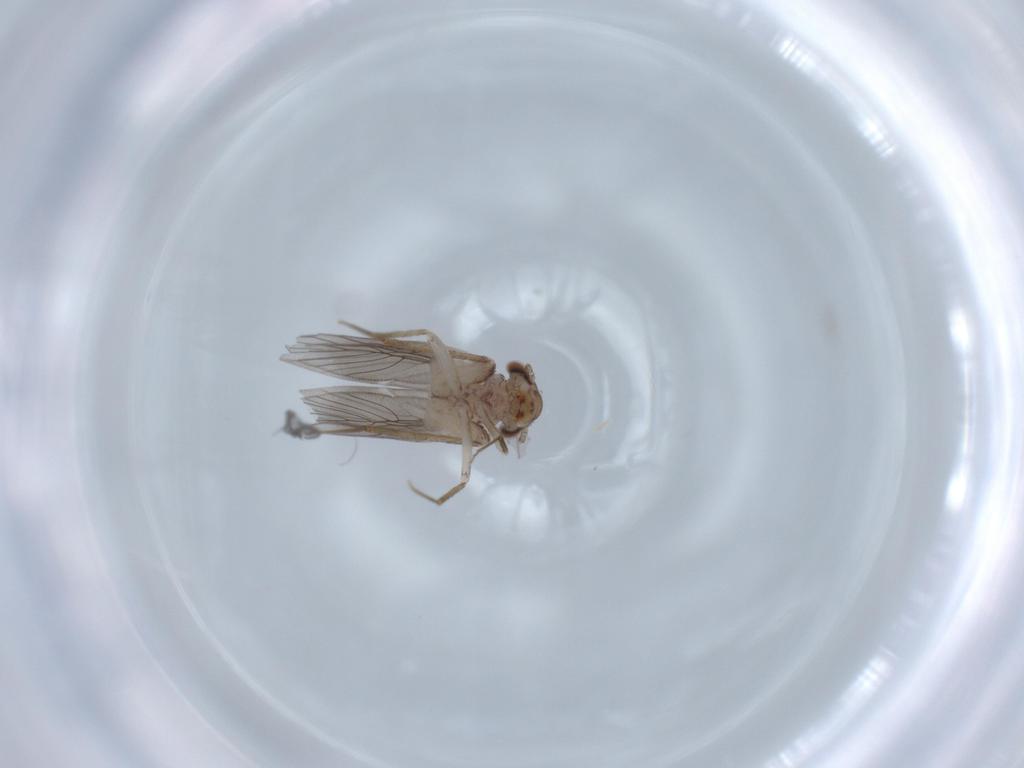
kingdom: Animalia
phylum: Arthropoda
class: Insecta
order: Psocodea
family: Lepidopsocidae
